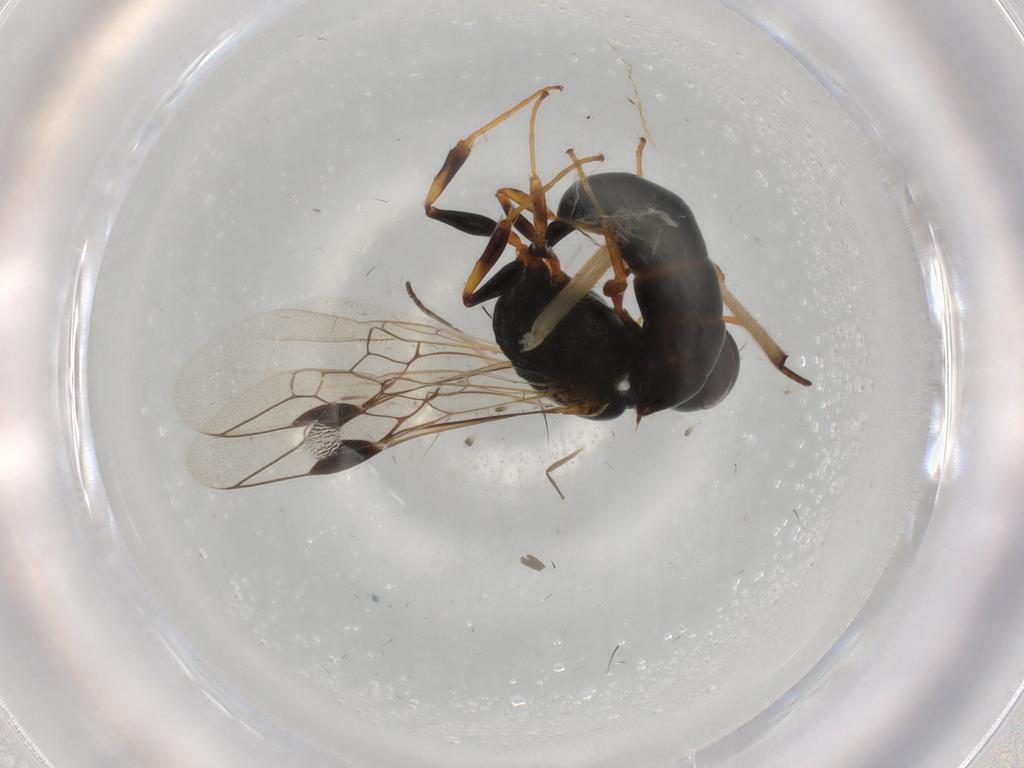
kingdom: Animalia
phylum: Arthropoda
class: Insecta
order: Hymenoptera
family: Crabronidae
